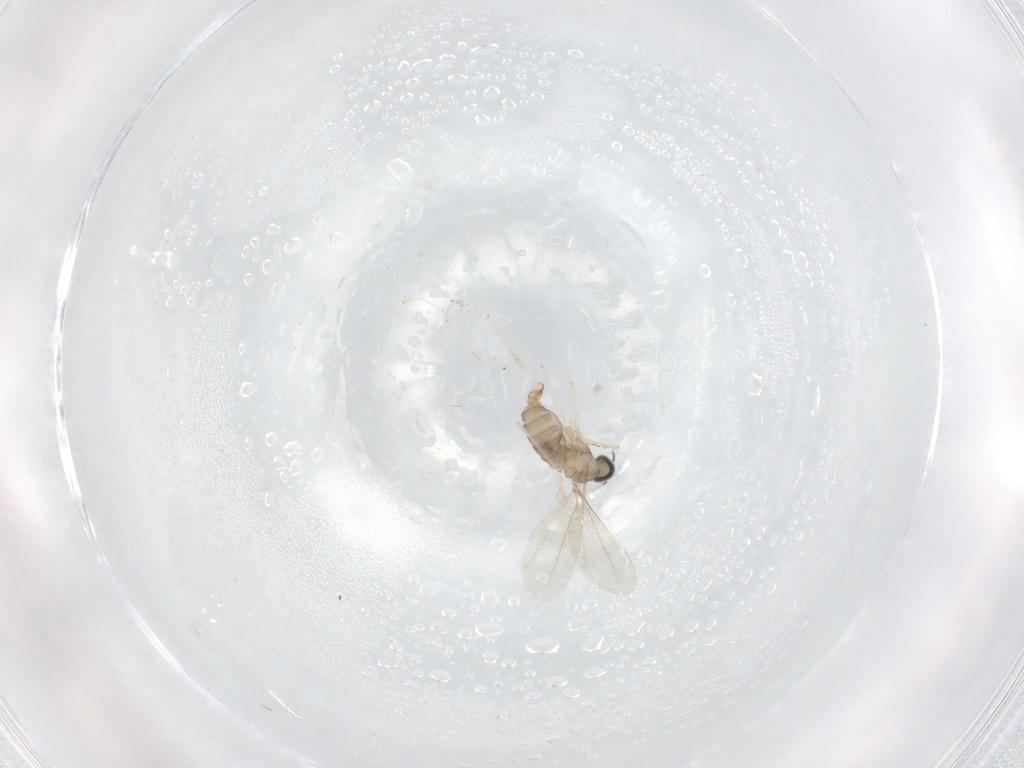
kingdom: Animalia
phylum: Arthropoda
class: Insecta
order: Diptera
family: Cecidomyiidae
